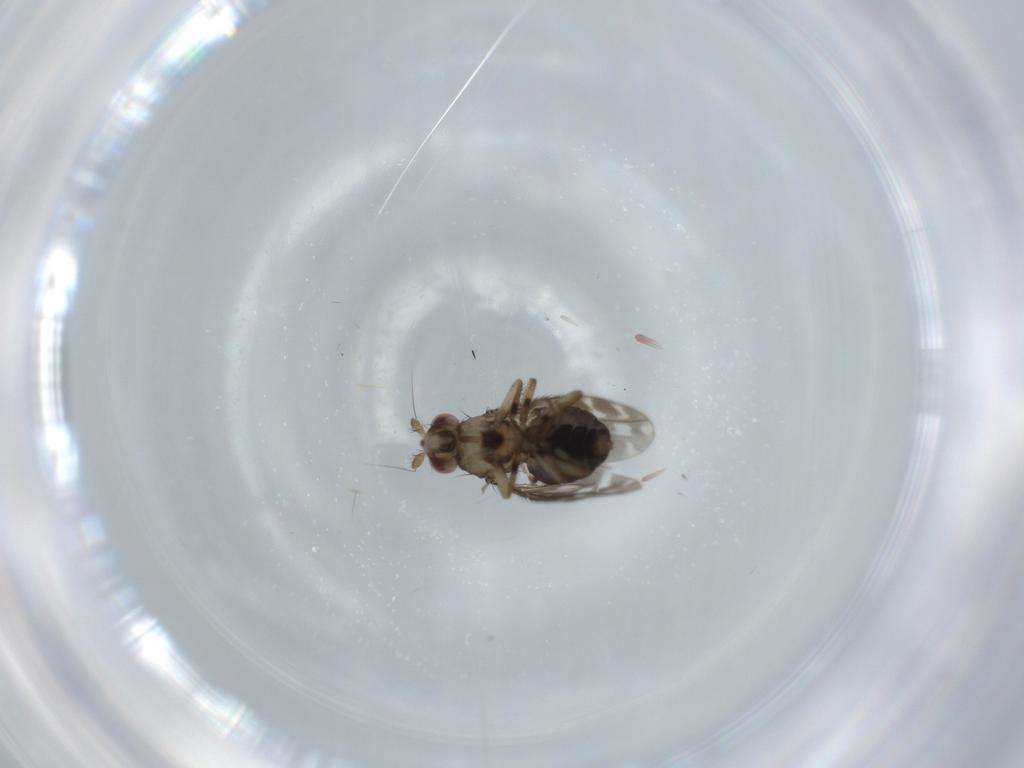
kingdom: Animalia
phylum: Arthropoda
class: Insecta
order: Diptera
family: Sphaeroceridae
